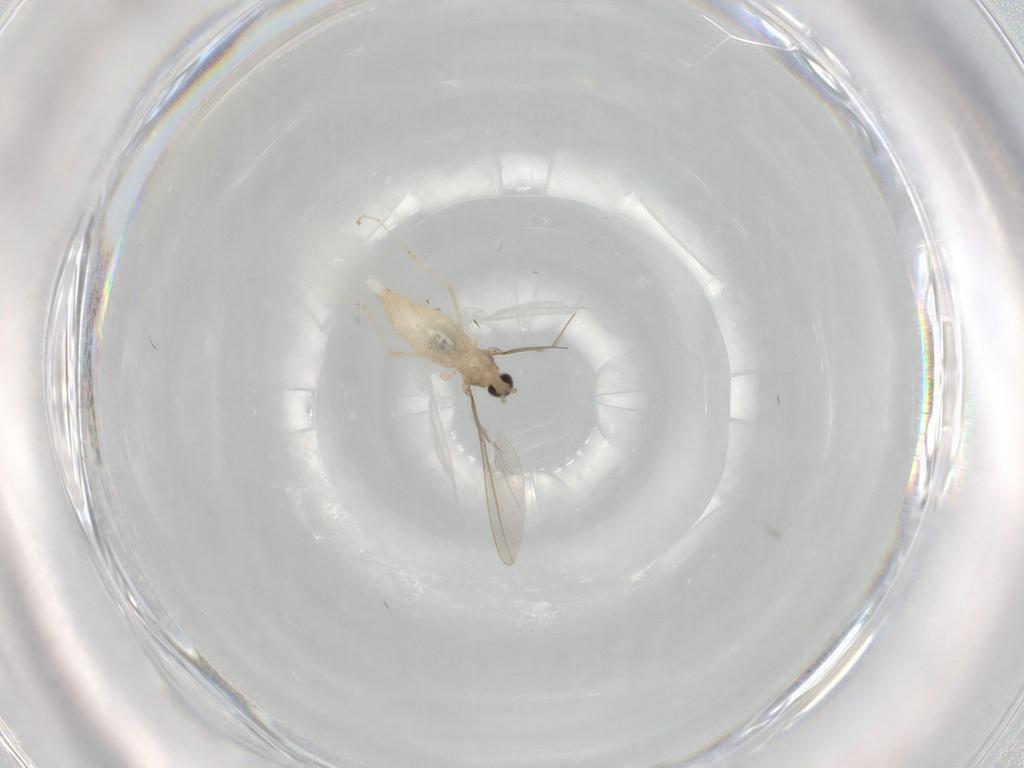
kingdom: Animalia
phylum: Arthropoda
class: Insecta
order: Diptera
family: Cecidomyiidae
